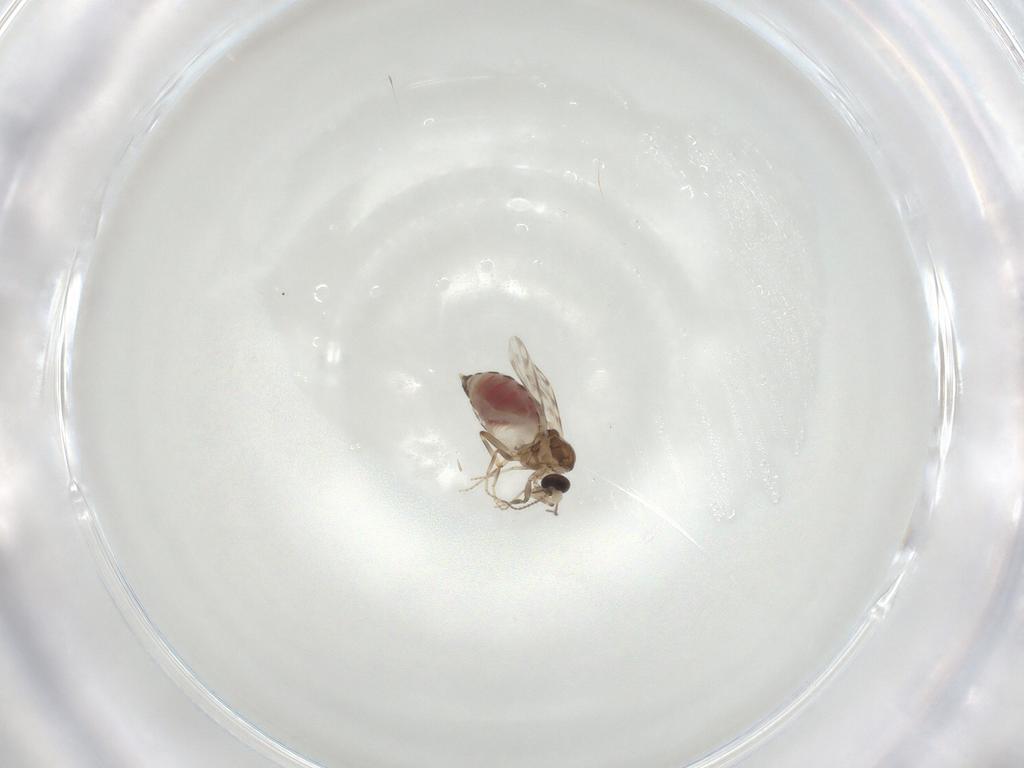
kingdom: Animalia
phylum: Arthropoda
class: Insecta
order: Diptera
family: Ceratopogonidae
